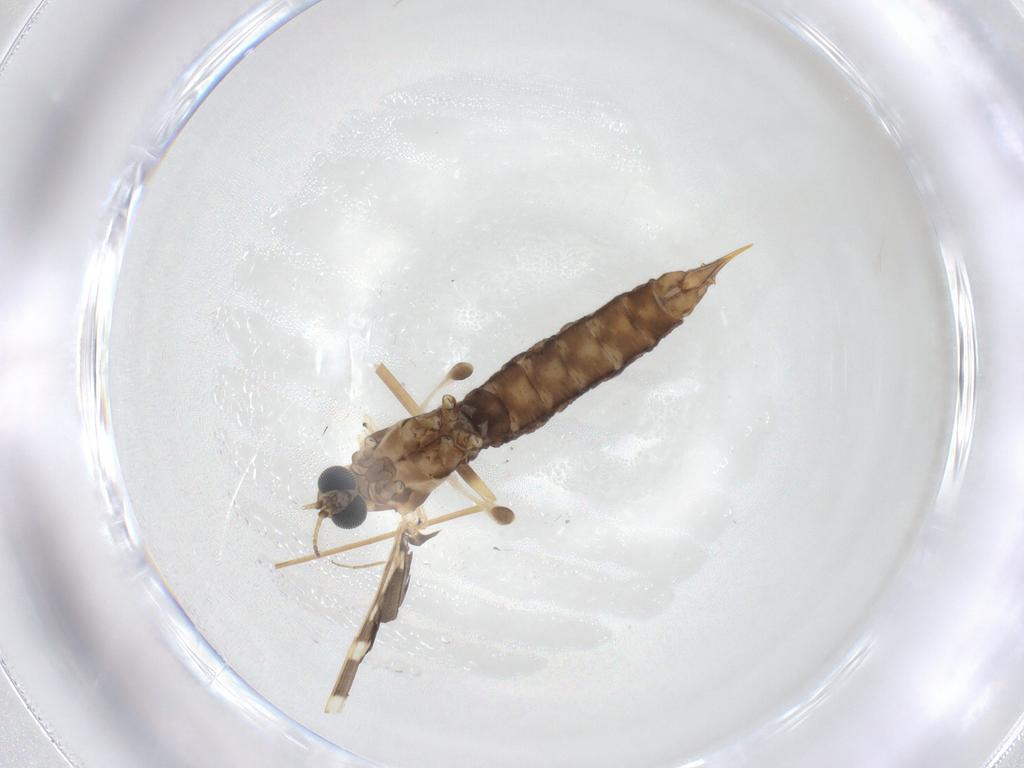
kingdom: Animalia
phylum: Arthropoda
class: Insecta
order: Diptera
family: Limoniidae
